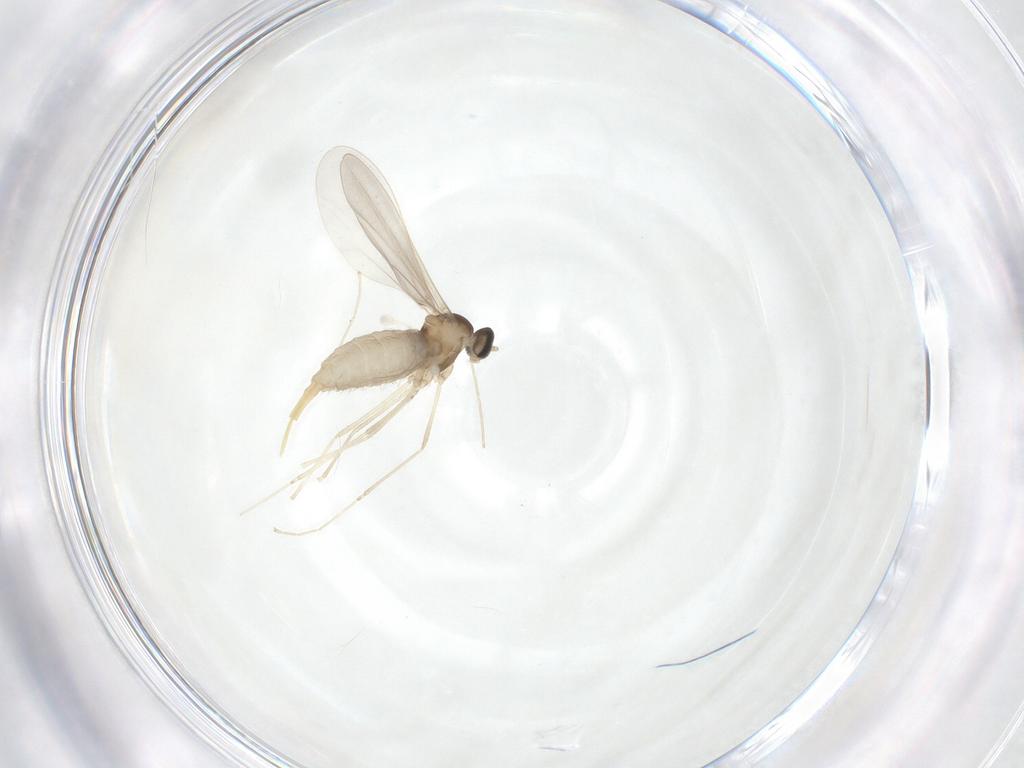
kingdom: Animalia
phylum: Arthropoda
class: Insecta
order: Diptera
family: Cecidomyiidae
